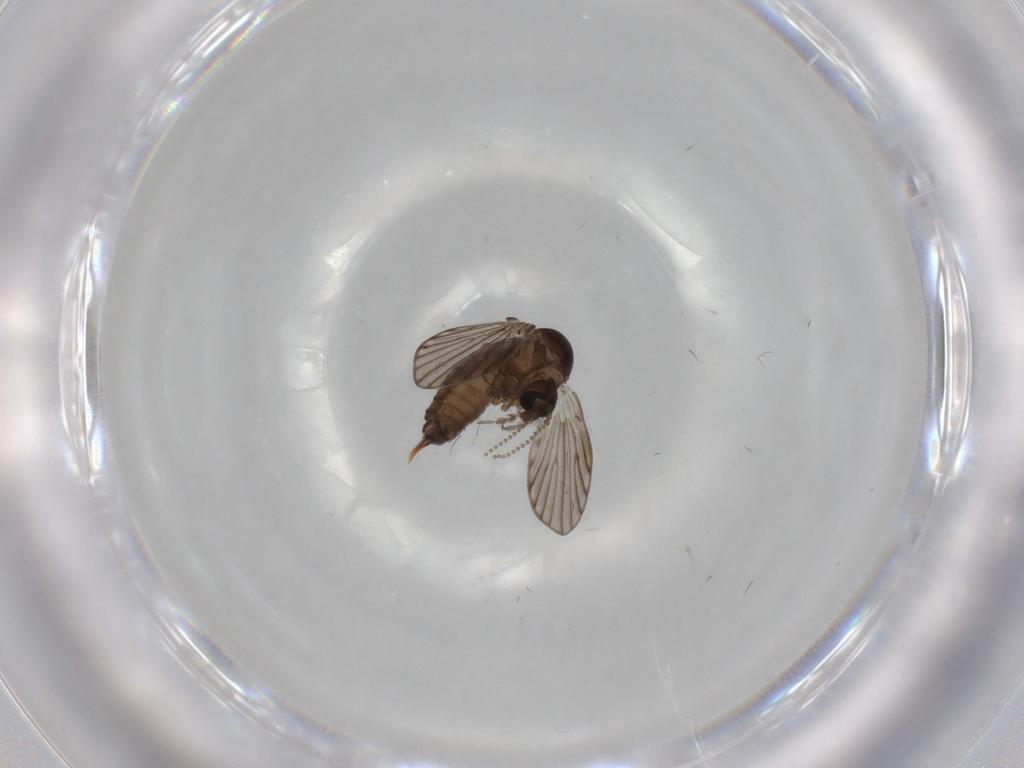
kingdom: Animalia
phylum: Arthropoda
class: Insecta
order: Diptera
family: Psychodidae
